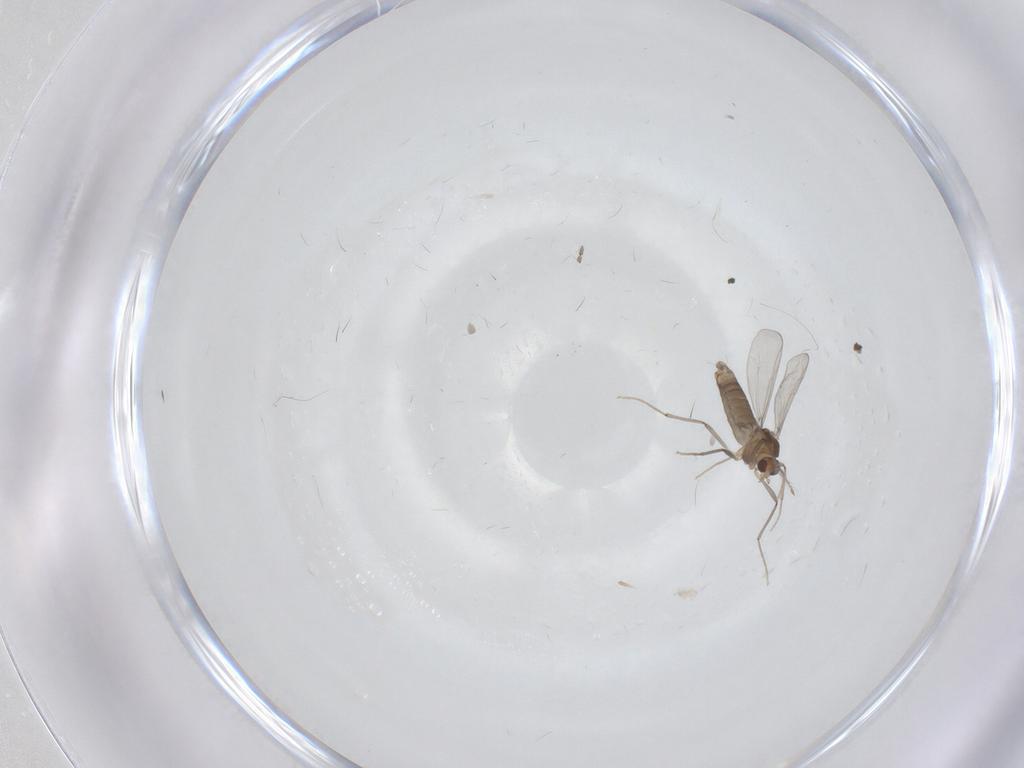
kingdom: Animalia
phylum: Arthropoda
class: Insecta
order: Diptera
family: Chironomidae
